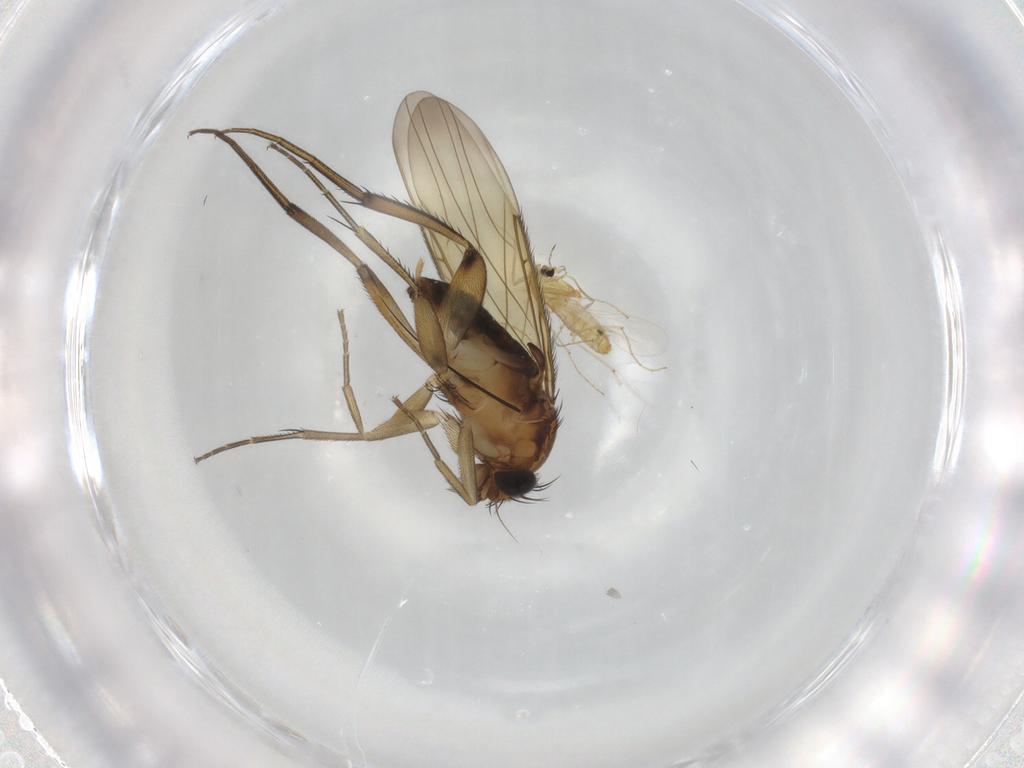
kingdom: Animalia
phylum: Arthropoda
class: Insecta
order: Diptera
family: Chironomidae
